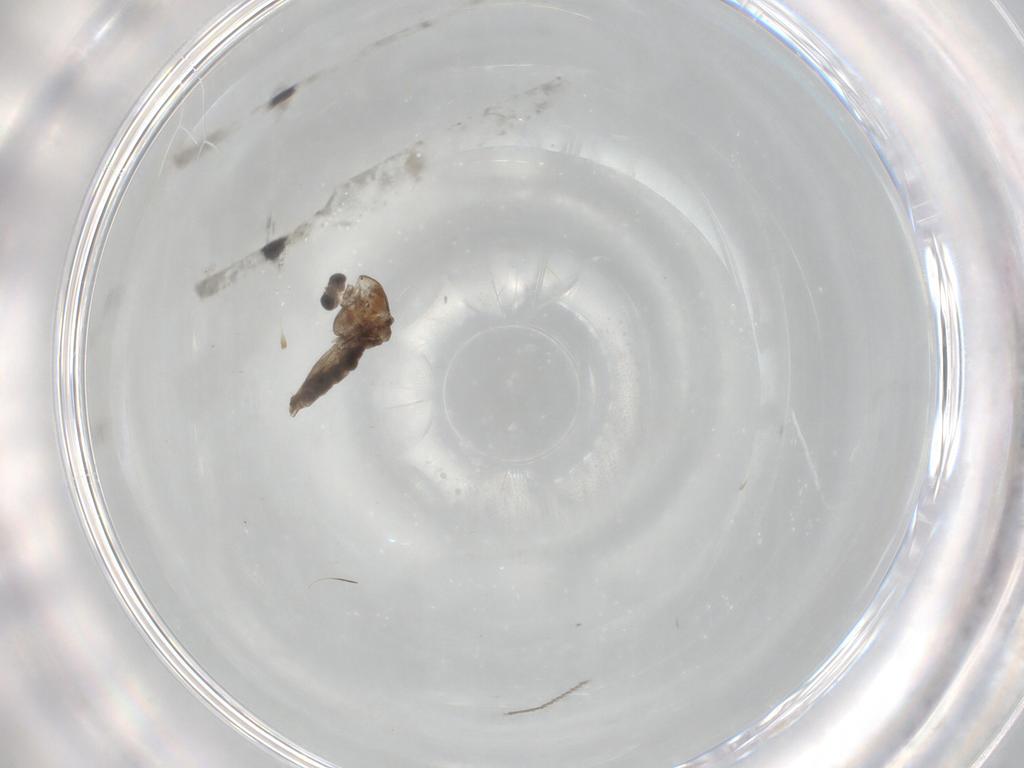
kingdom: Animalia
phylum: Arthropoda
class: Insecta
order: Diptera
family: Chironomidae
